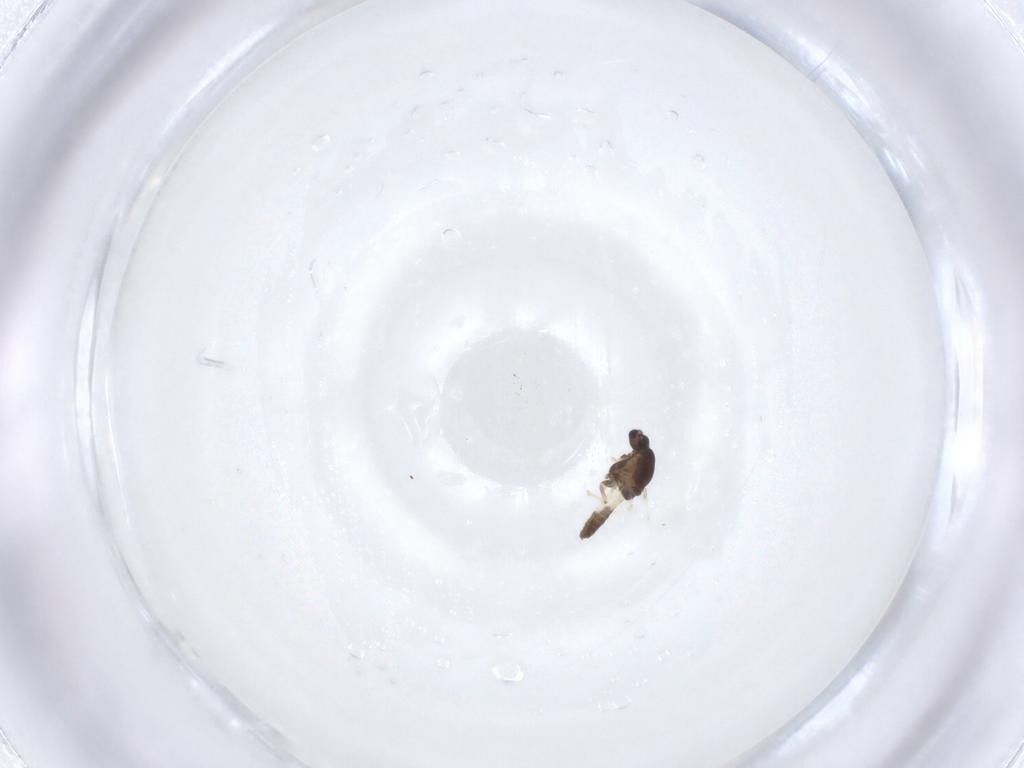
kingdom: Animalia
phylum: Arthropoda
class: Insecta
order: Diptera
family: Chironomidae
